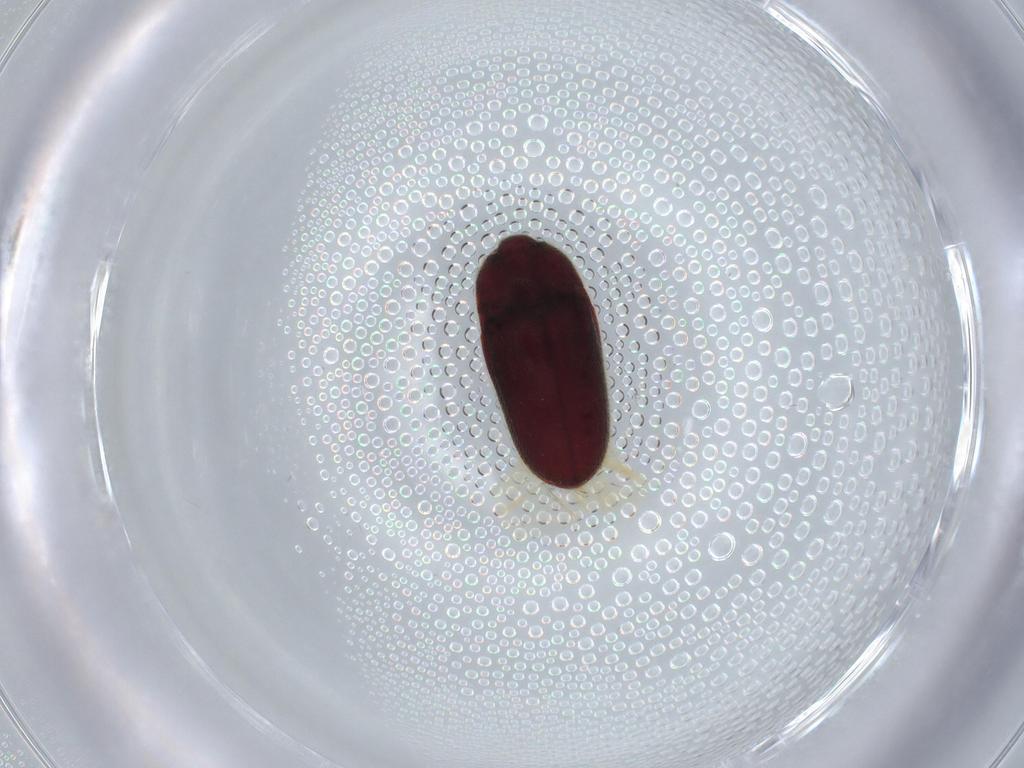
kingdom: Animalia
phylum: Arthropoda
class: Insecta
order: Coleoptera
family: Throscidae
